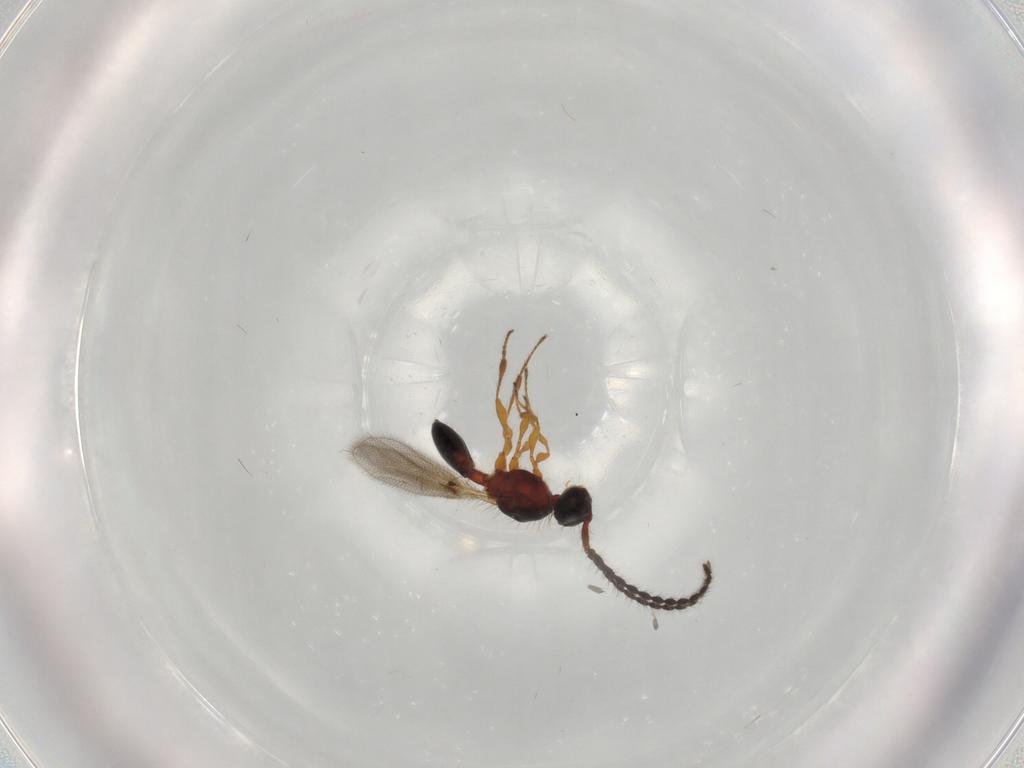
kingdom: Animalia
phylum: Arthropoda
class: Insecta
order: Hymenoptera
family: Diapriidae
